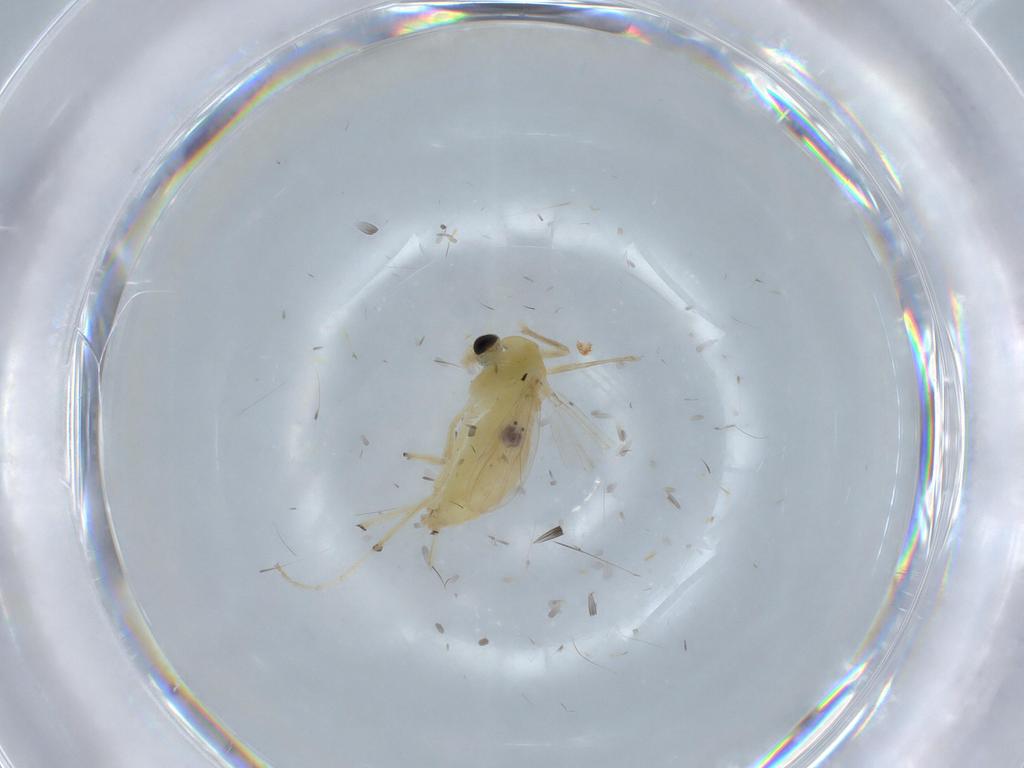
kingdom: Animalia
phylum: Arthropoda
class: Insecta
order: Diptera
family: Chironomidae
